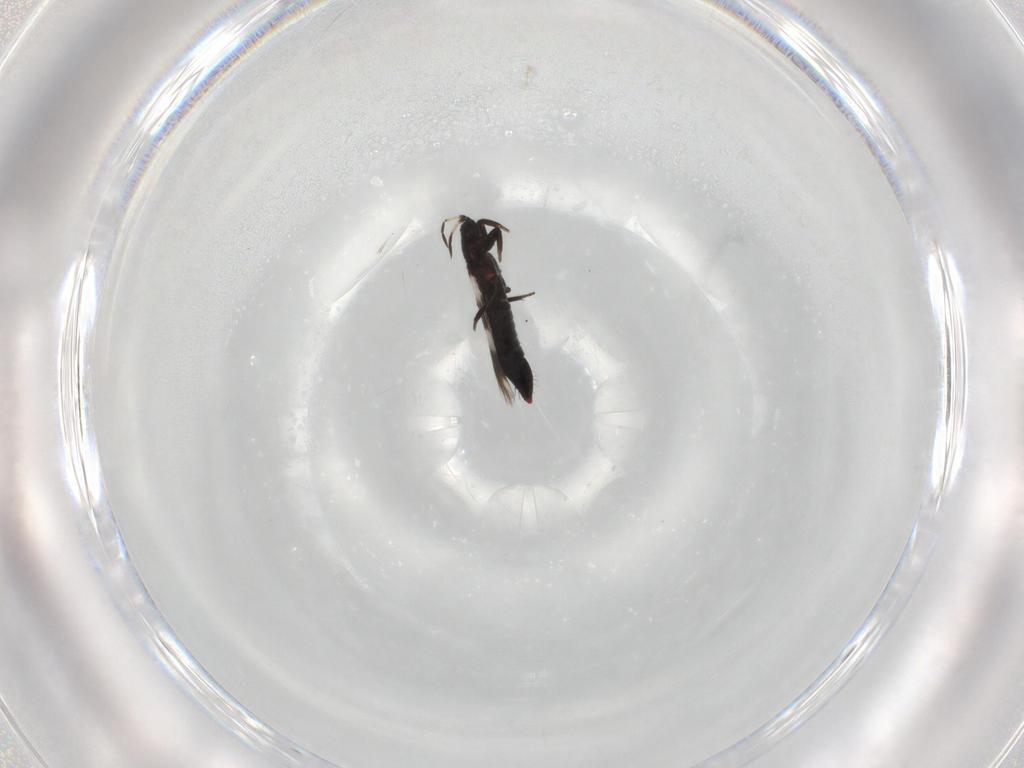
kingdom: Animalia
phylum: Arthropoda
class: Insecta
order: Thysanoptera
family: Aeolothripidae
